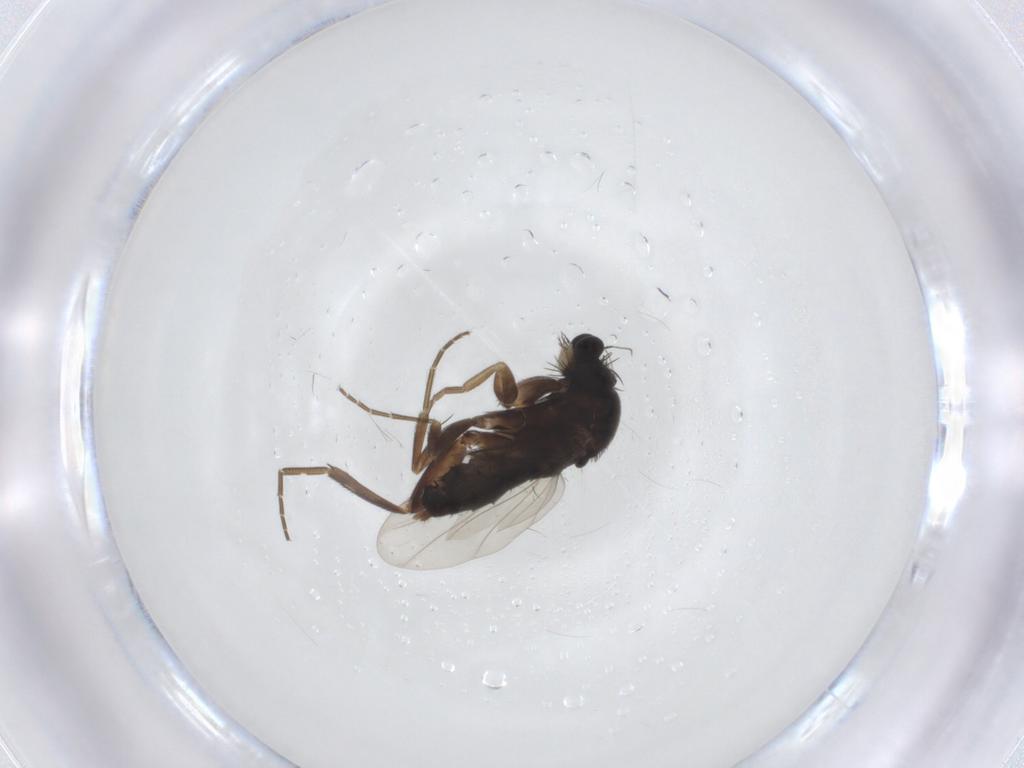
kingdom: Animalia
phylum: Arthropoda
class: Insecta
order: Diptera
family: Phoridae
